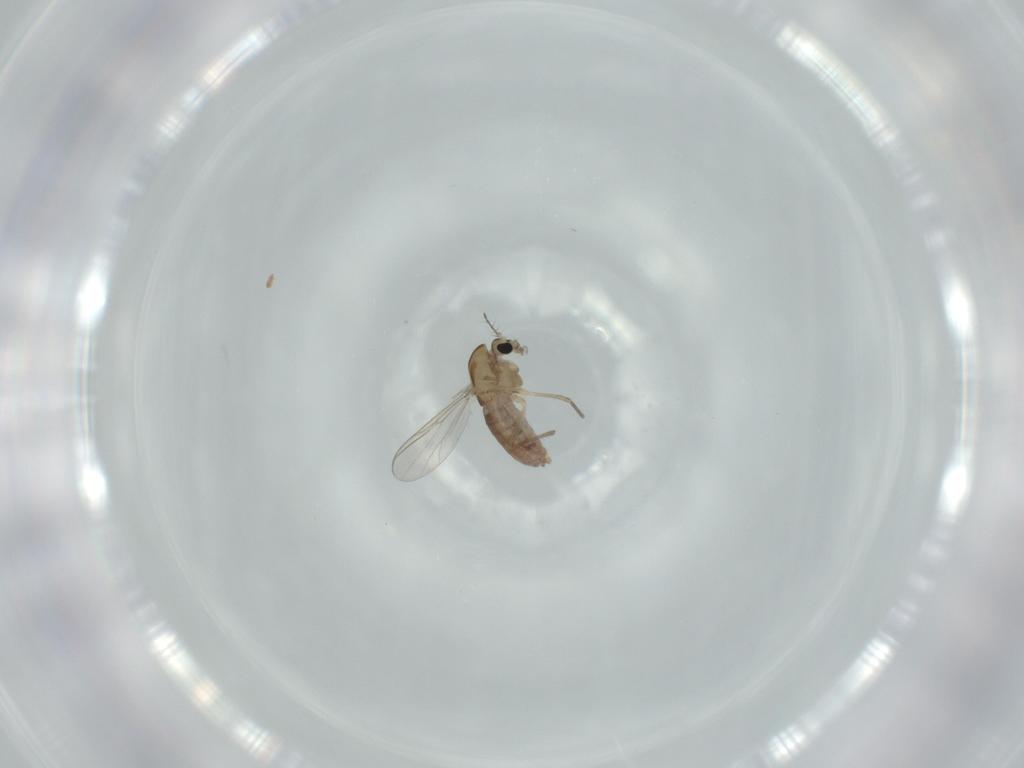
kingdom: Animalia
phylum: Arthropoda
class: Insecta
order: Diptera
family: Chironomidae
